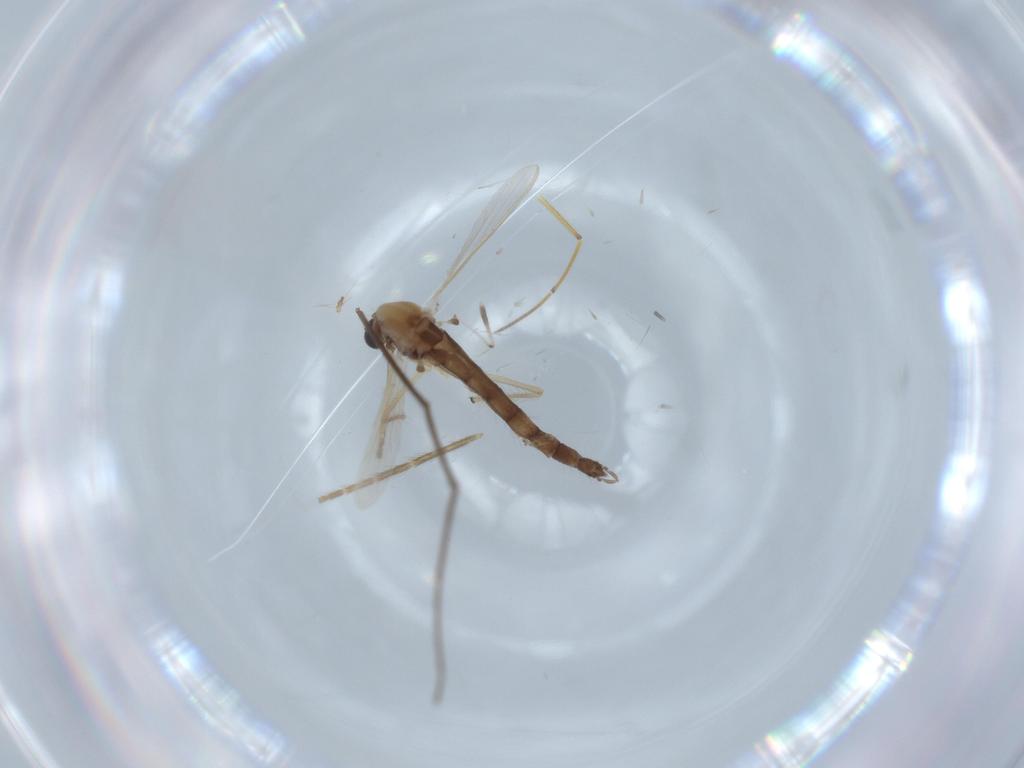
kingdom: Animalia
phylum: Arthropoda
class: Insecta
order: Diptera
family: Chironomidae
